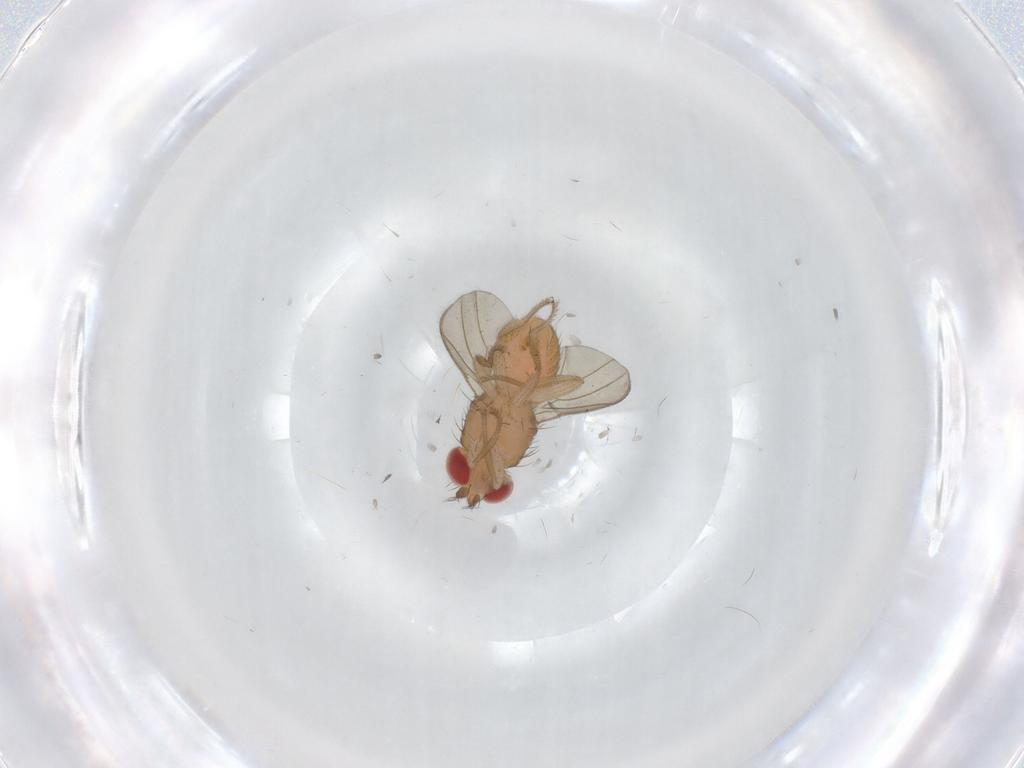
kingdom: Animalia
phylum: Arthropoda
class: Insecta
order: Diptera
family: Drosophilidae
